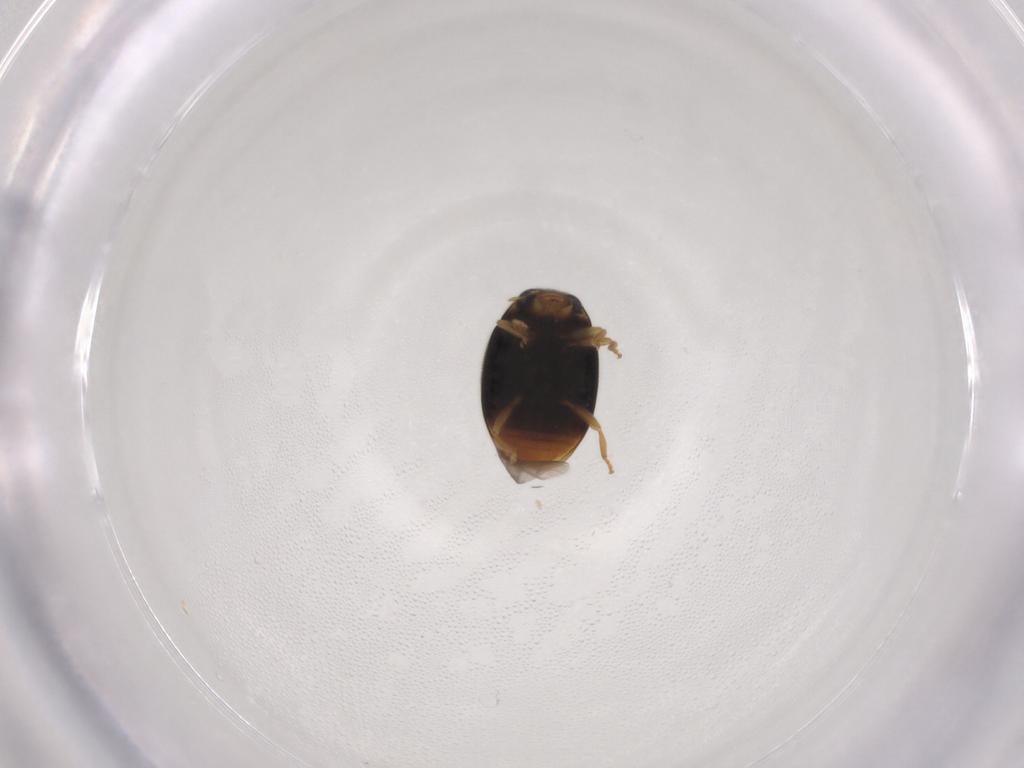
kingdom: Animalia
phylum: Arthropoda
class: Insecta
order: Coleoptera
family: Coccinellidae
